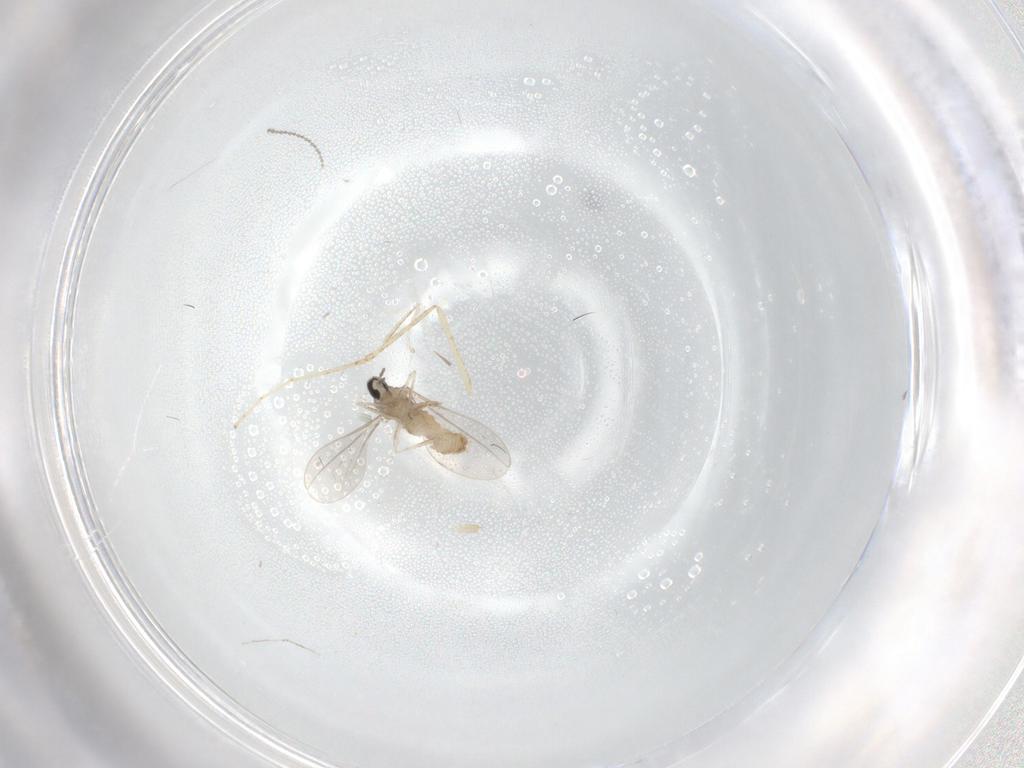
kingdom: Animalia
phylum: Arthropoda
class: Insecta
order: Diptera
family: Cecidomyiidae
